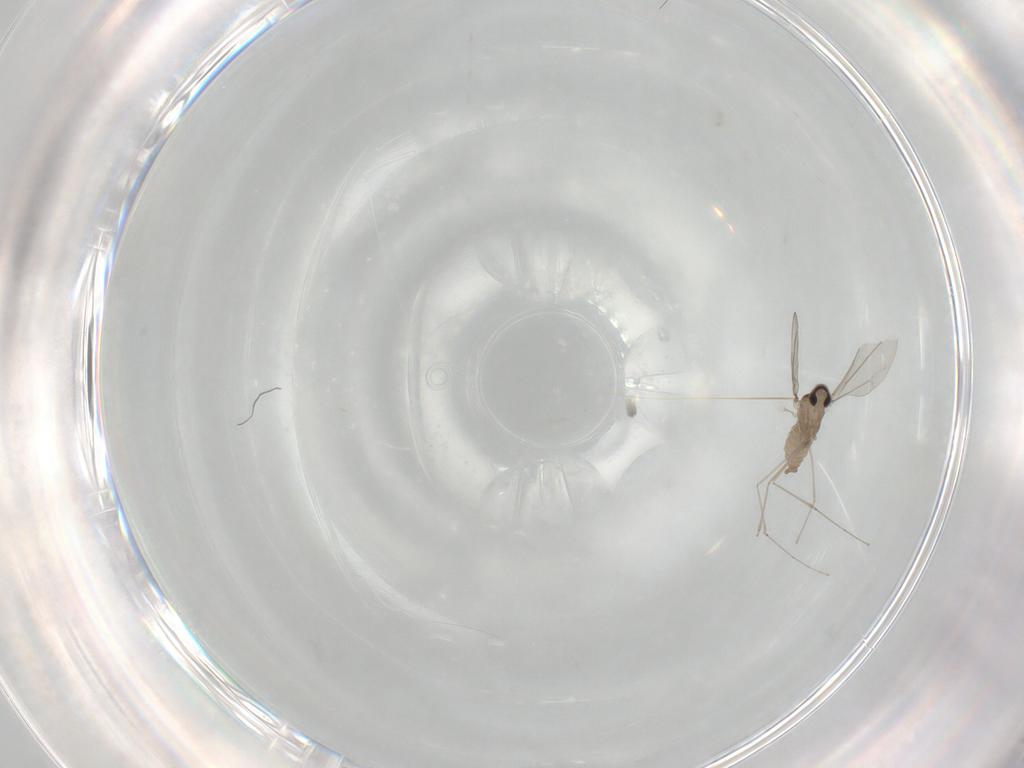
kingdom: Animalia
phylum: Arthropoda
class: Insecta
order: Diptera
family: Cecidomyiidae
